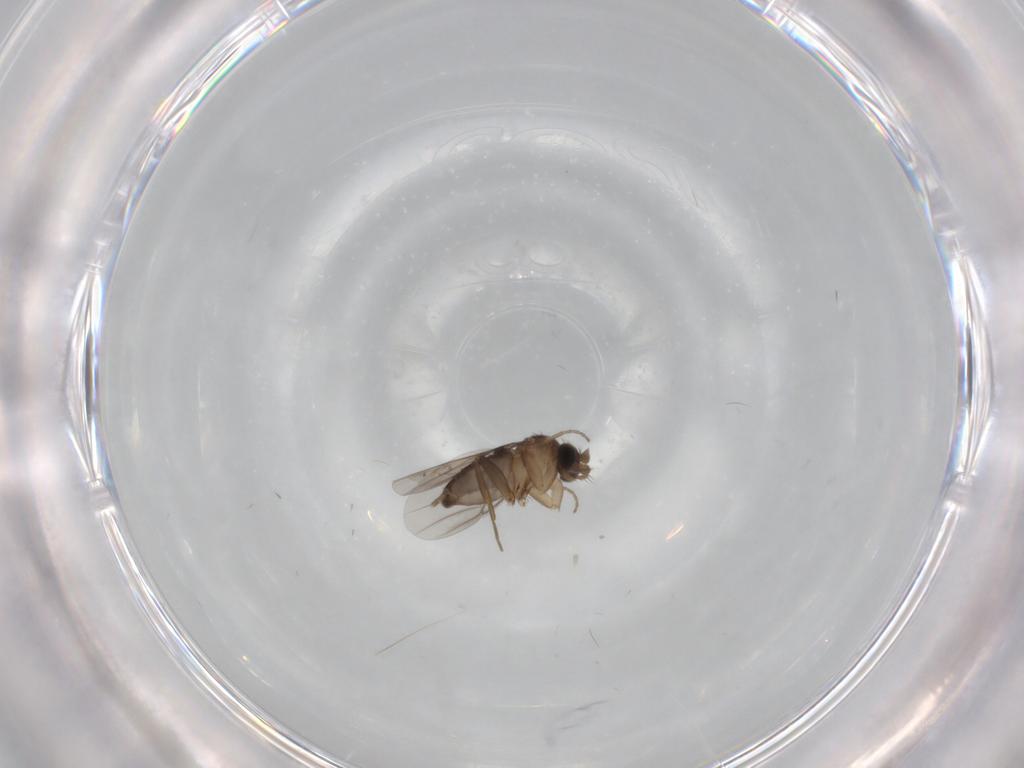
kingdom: Animalia
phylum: Arthropoda
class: Insecta
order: Diptera
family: Phoridae
